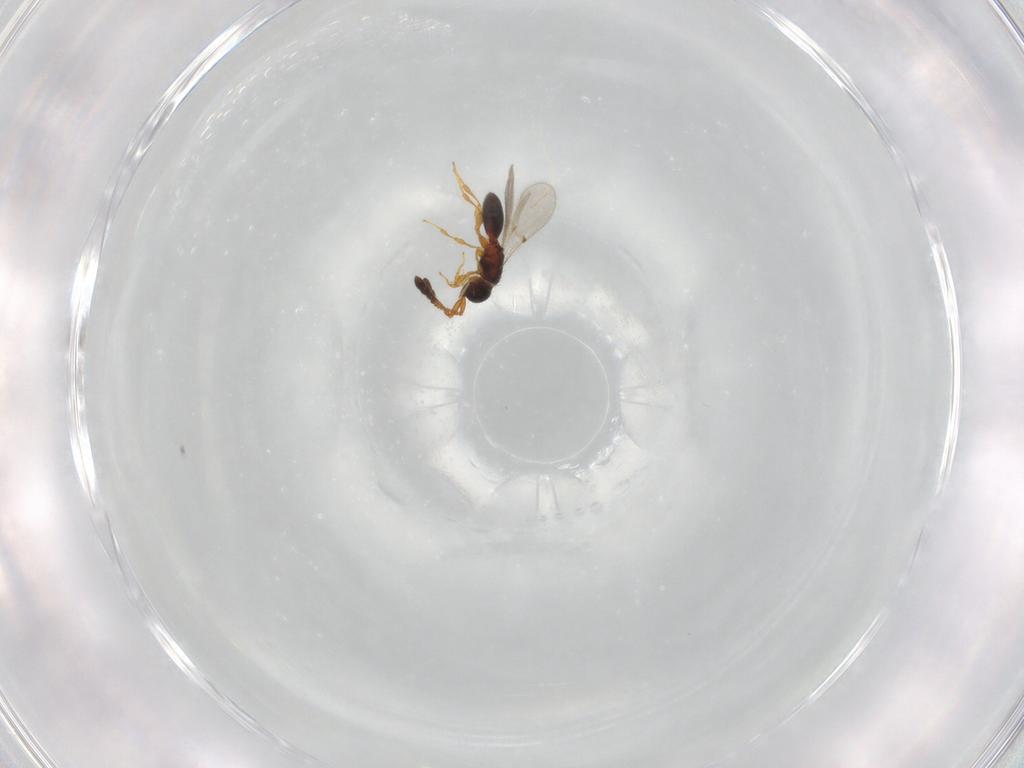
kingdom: Animalia
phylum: Arthropoda
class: Insecta
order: Hymenoptera
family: Diapriidae
